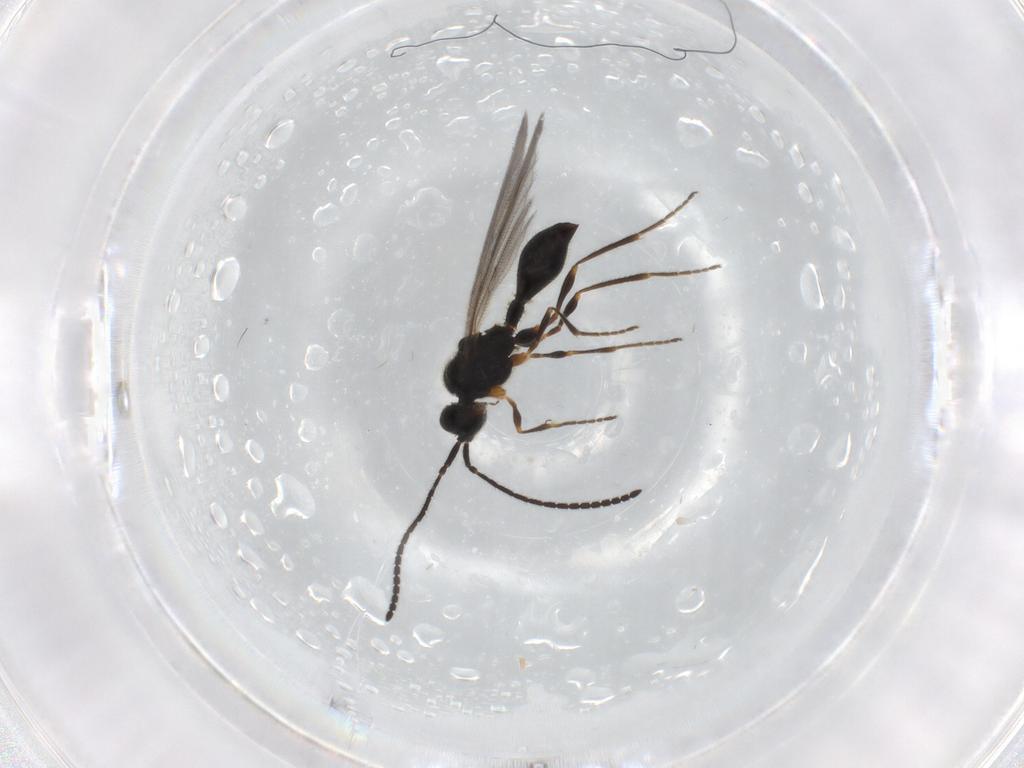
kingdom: Animalia
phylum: Arthropoda
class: Insecta
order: Hymenoptera
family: Diapriidae
